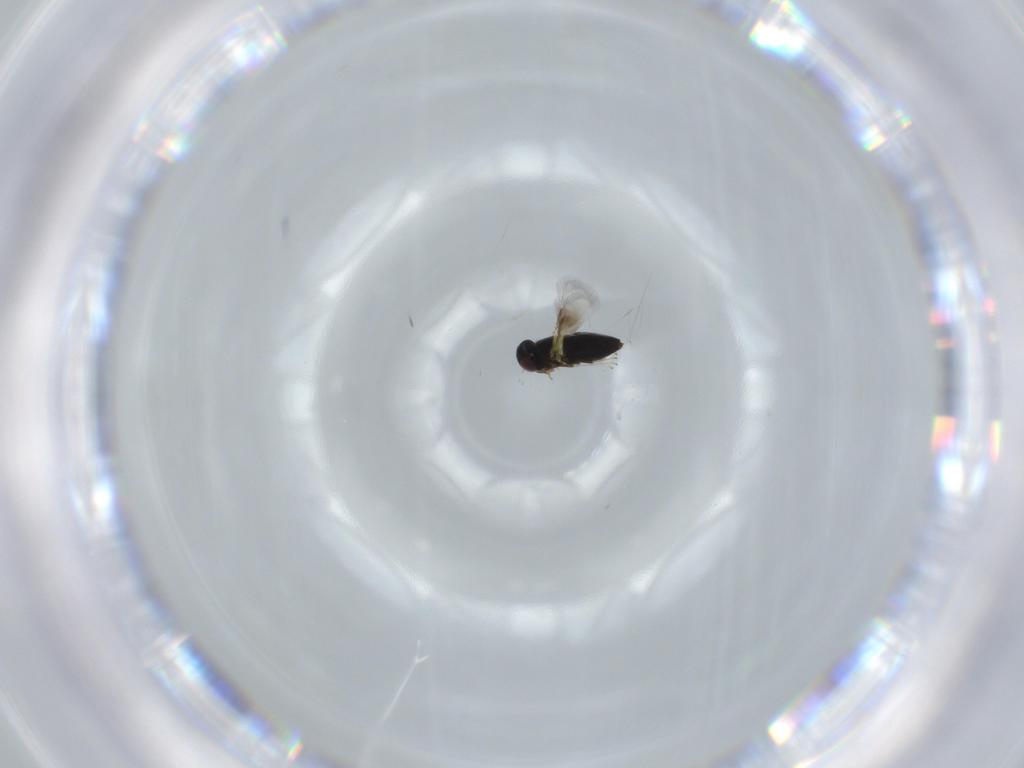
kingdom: Animalia
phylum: Arthropoda
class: Insecta
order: Hymenoptera
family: Signiphoridae
